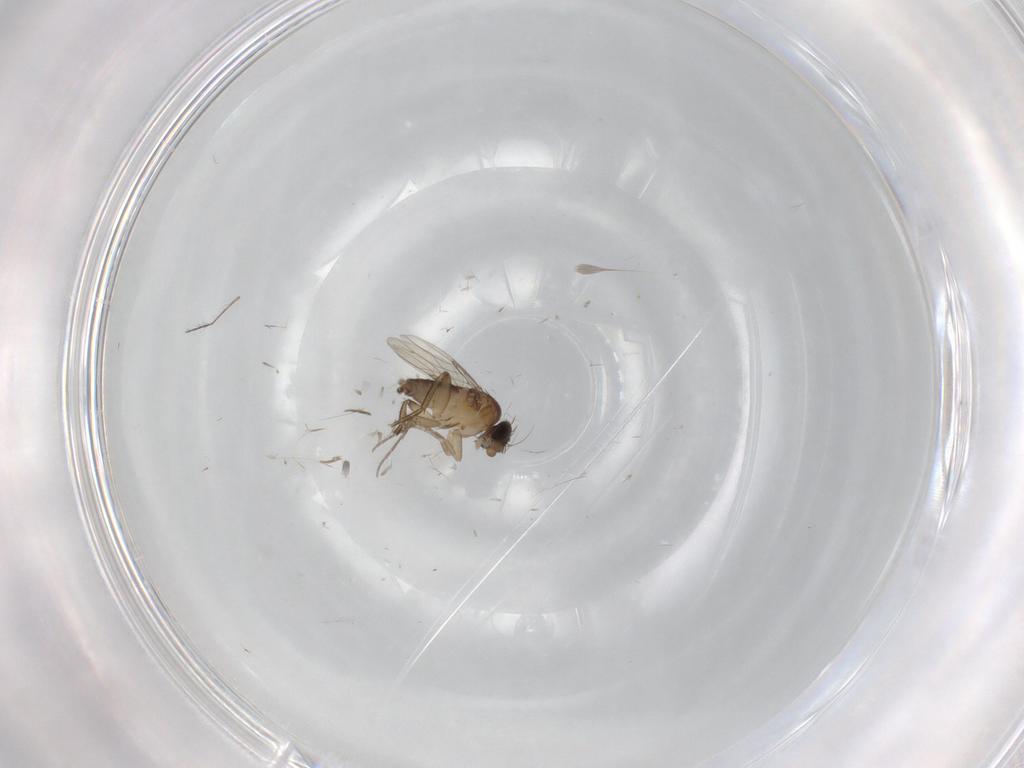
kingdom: Animalia
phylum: Arthropoda
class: Insecta
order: Diptera
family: Phoridae
